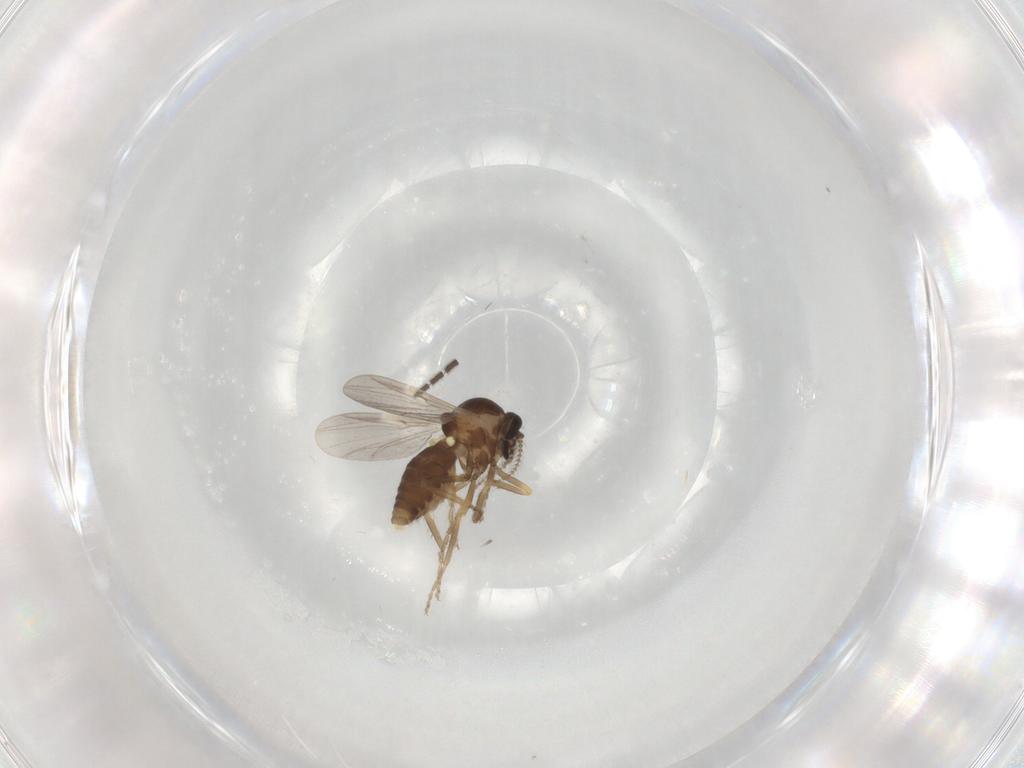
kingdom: Animalia
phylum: Arthropoda
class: Insecta
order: Diptera
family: Ceratopogonidae
